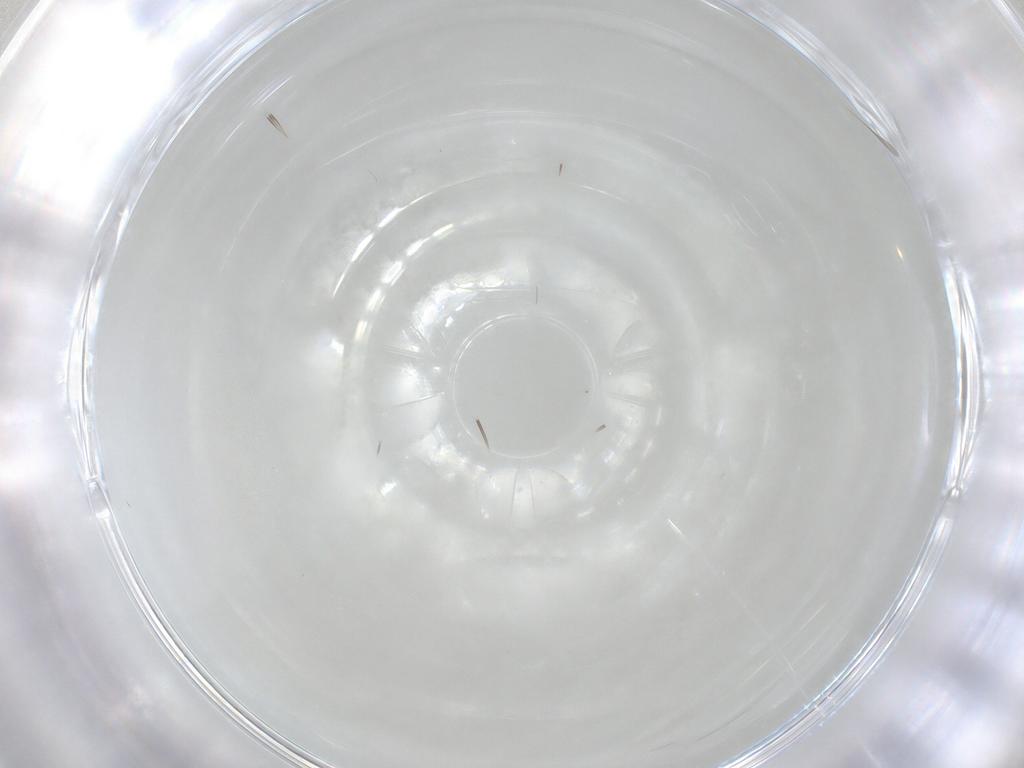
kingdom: Animalia
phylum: Arthropoda
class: Insecta
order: Diptera
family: Cecidomyiidae
